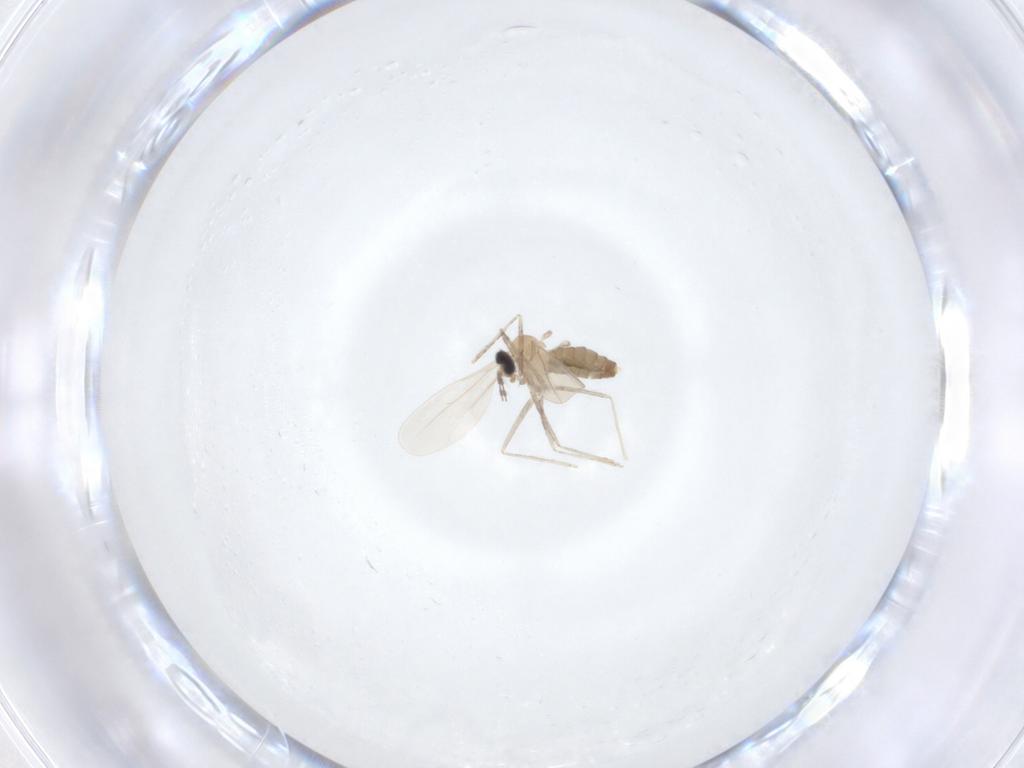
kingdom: Animalia
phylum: Arthropoda
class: Insecta
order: Diptera
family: Cecidomyiidae
